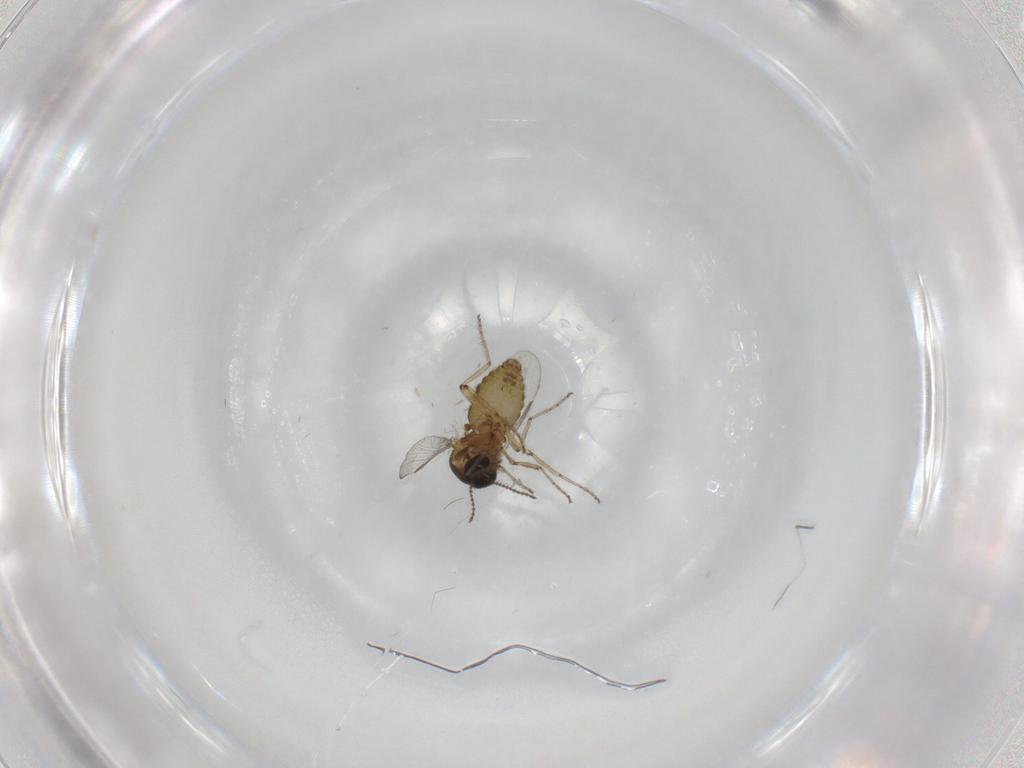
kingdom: Animalia
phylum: Arthropoda
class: Insecta
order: Diptera
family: Ceratopogonidae
